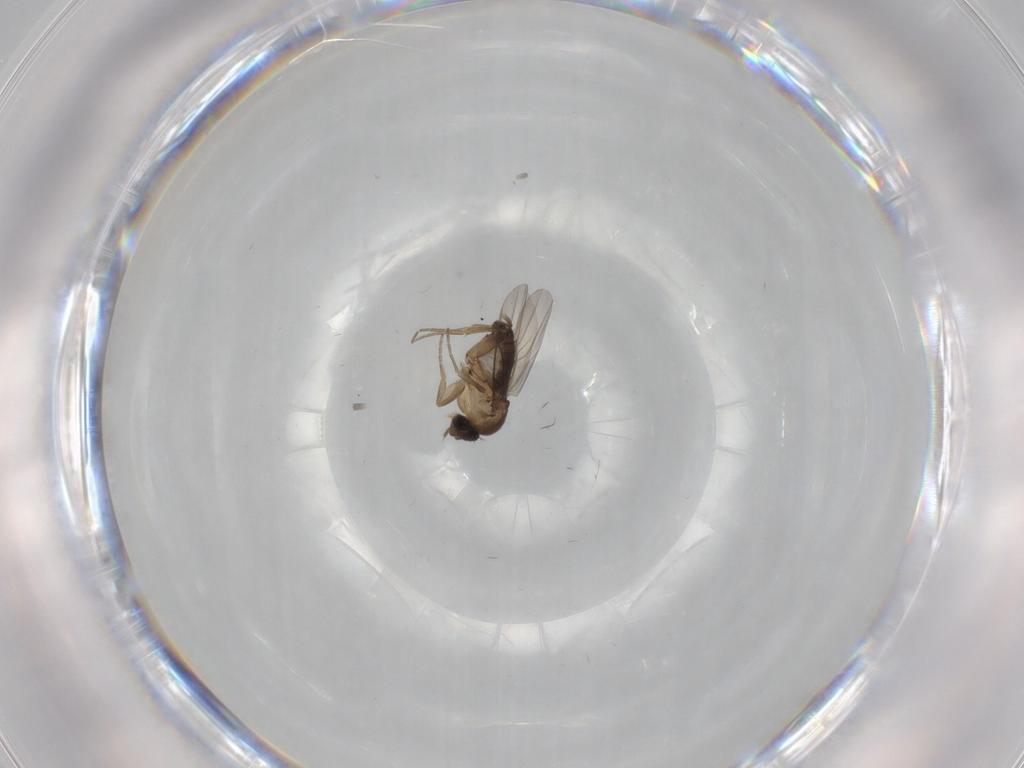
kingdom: Animalia
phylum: Arthropoda
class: Insecta
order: Diptera
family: Phoridae
